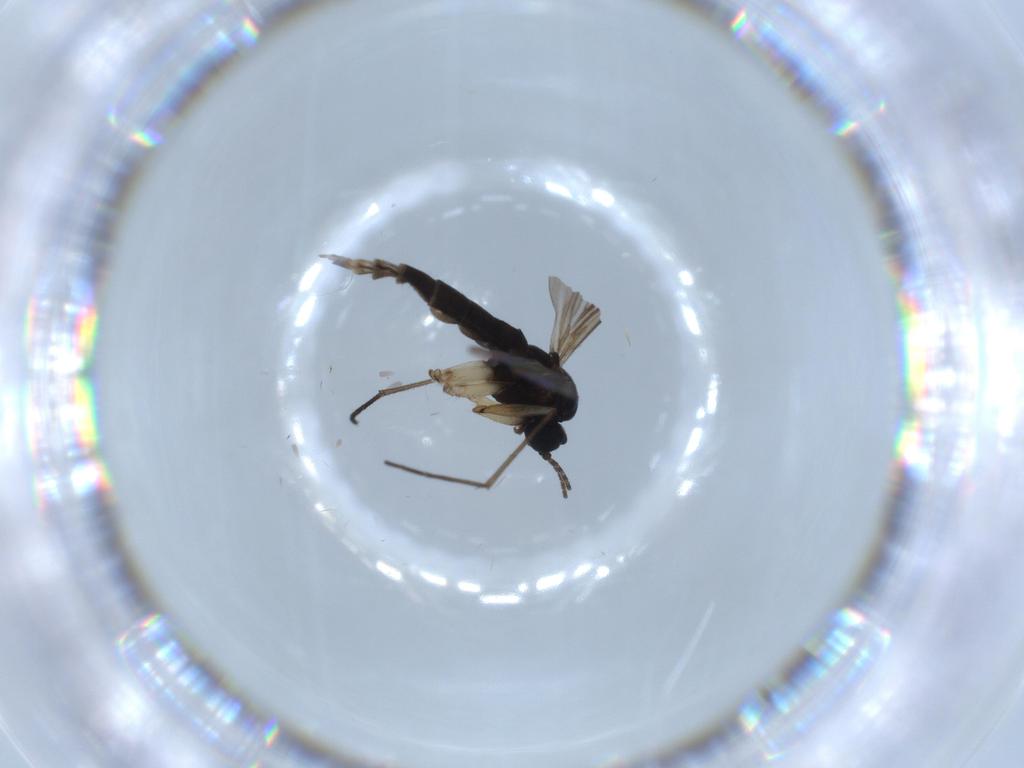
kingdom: Animalia
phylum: Arthropoda
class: Insecta
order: Diptera
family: Sciaridae
